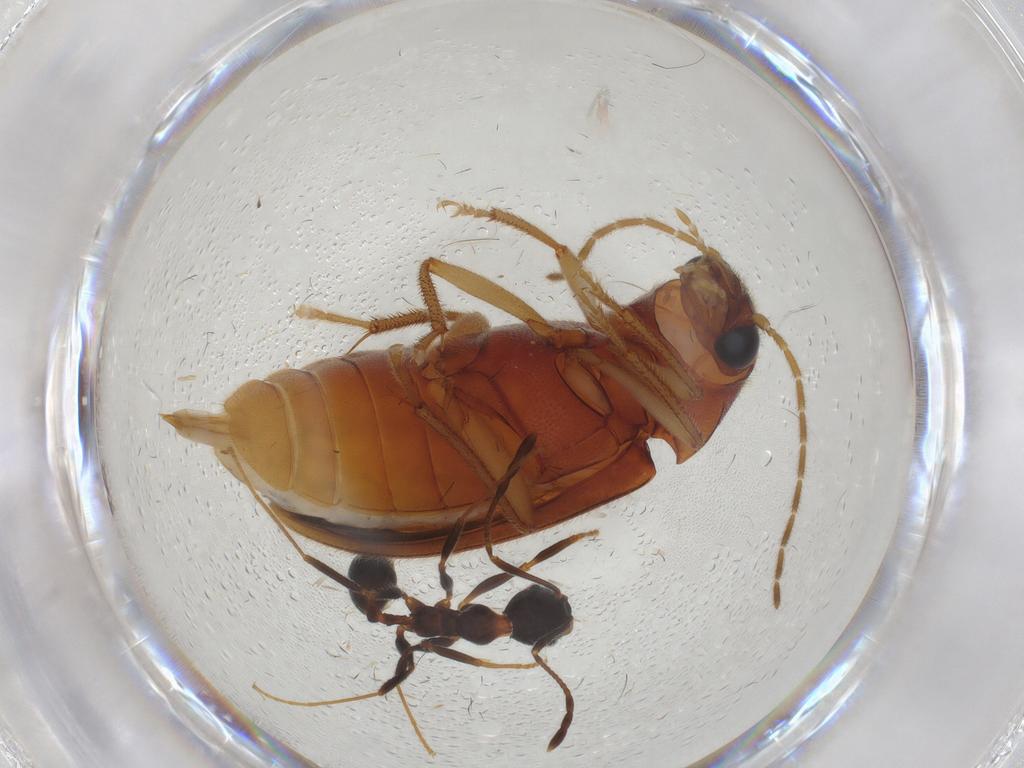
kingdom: Animalia
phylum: Arthropoda
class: Insecta
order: Coleoptera
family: Ptilodactylidae
